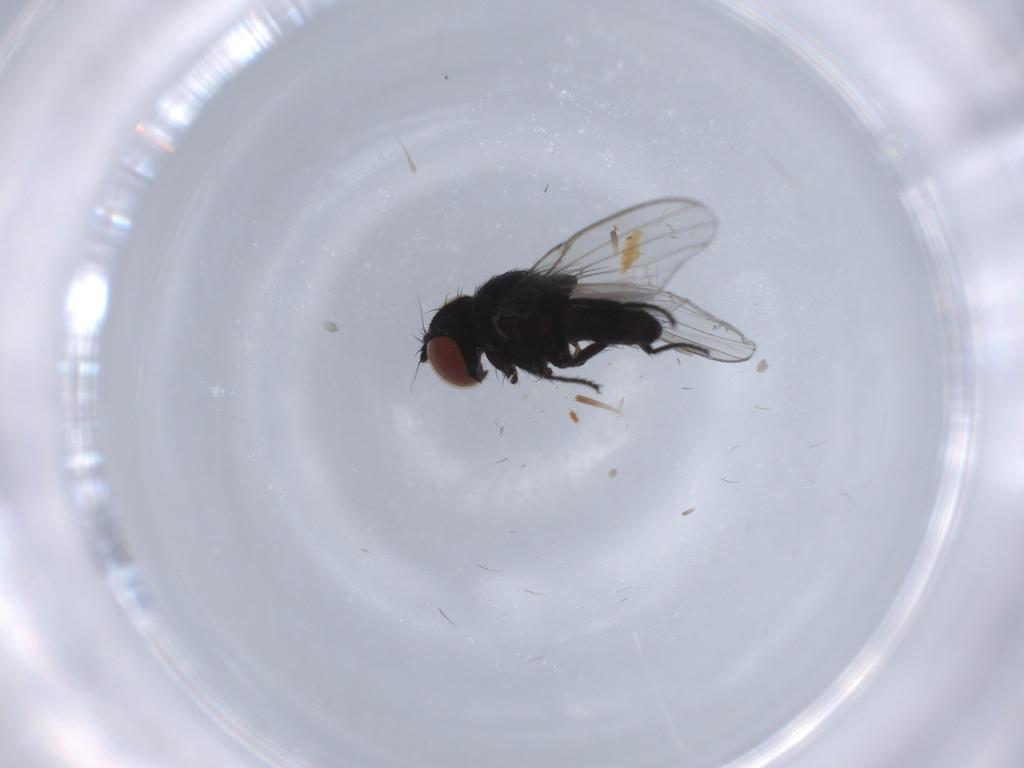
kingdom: Animalia
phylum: Arthropoda
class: Insecta
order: Diptera
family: Milichiidae
